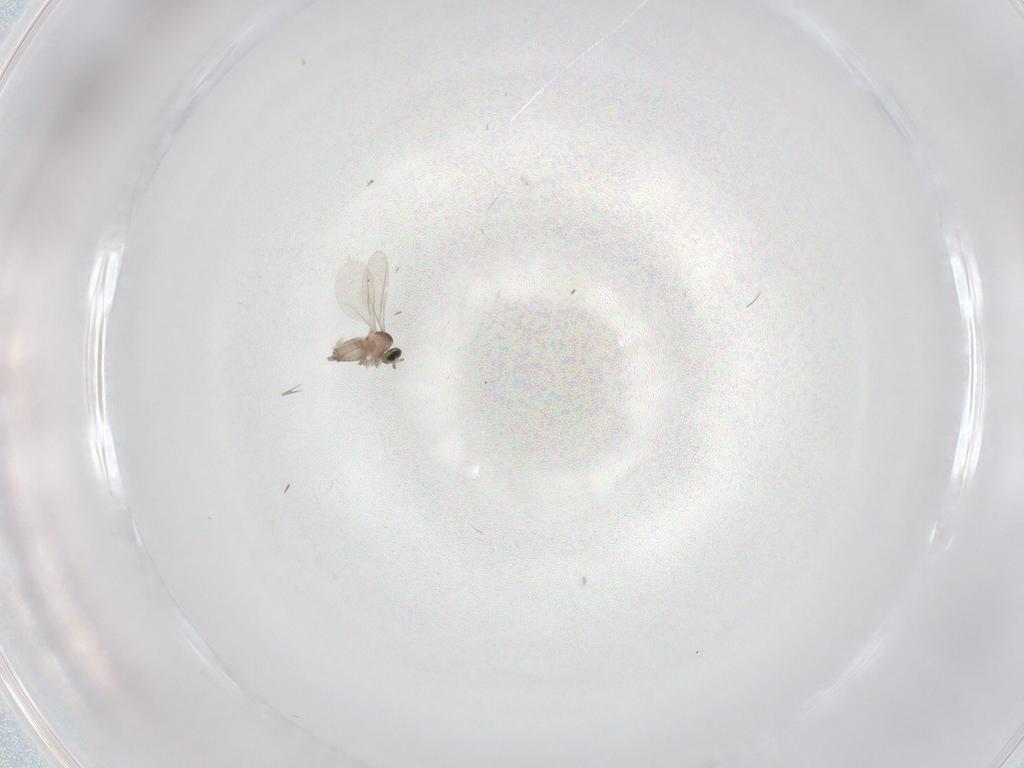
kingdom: Animalia
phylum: Arthropoda
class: Insecta
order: Diptera
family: Cecidomyiidae
